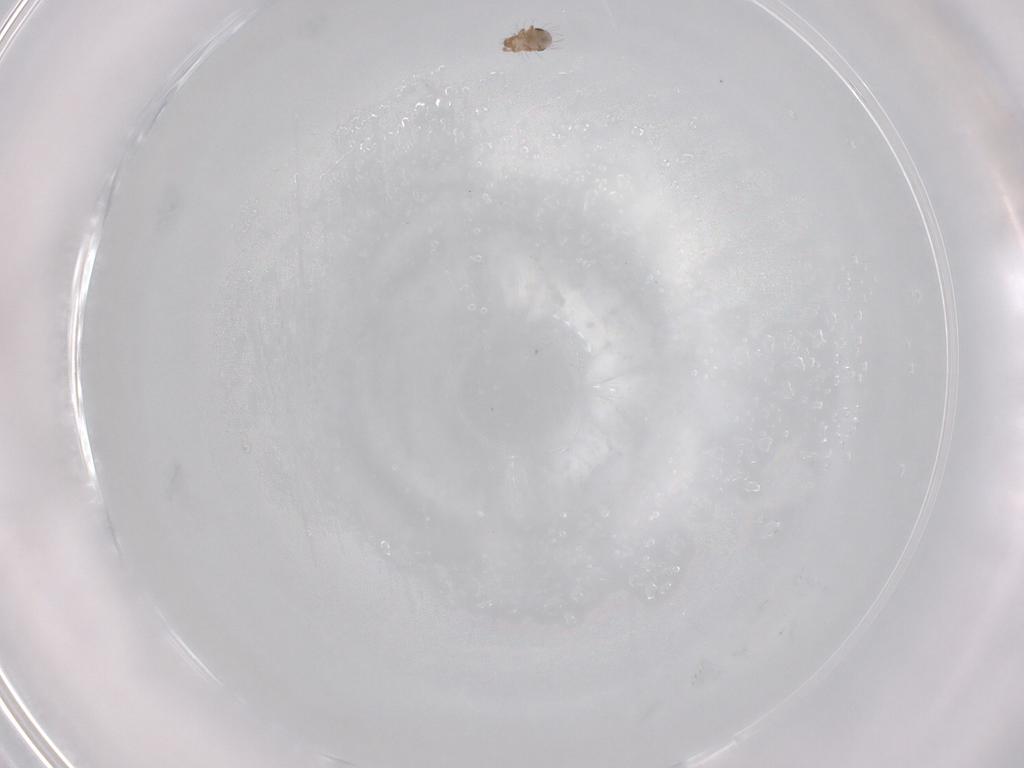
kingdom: Animalia
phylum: Arthropoda
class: Arachnida
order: Sarcoptiformes
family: Humerobatidae
